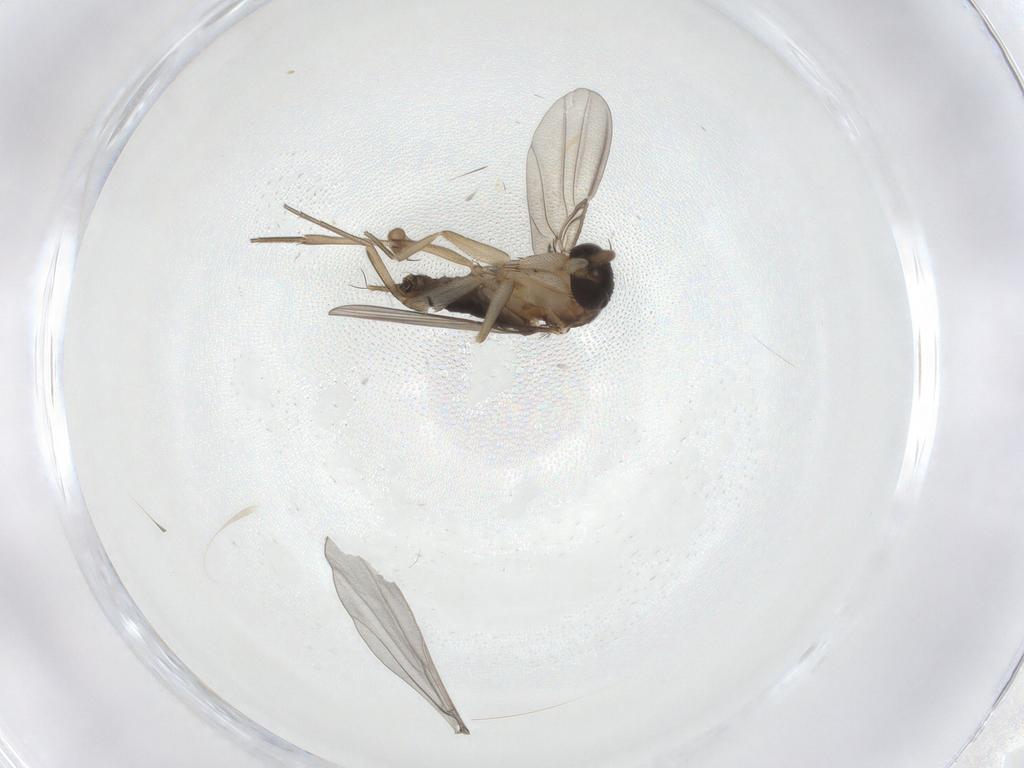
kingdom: Animalia
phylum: Arthropoda
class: Insecta
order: Diptera
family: Phoridae
